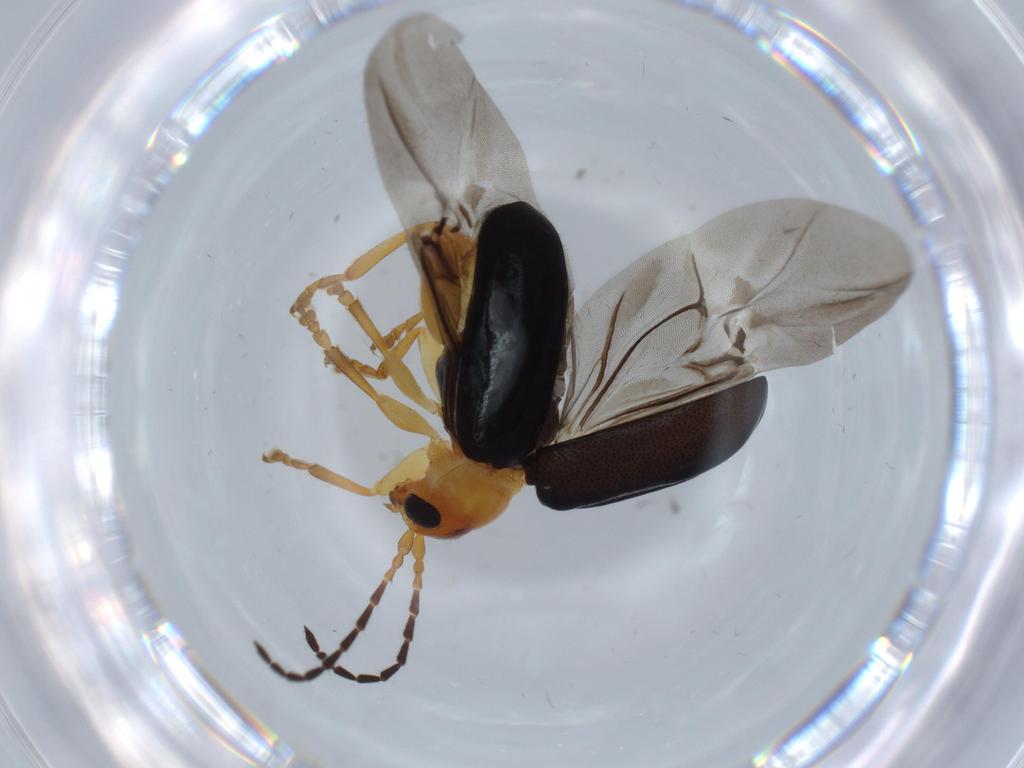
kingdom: Animalia
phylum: Arthropoda
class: Insecta
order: Coleoptera
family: Chrysomelidae
